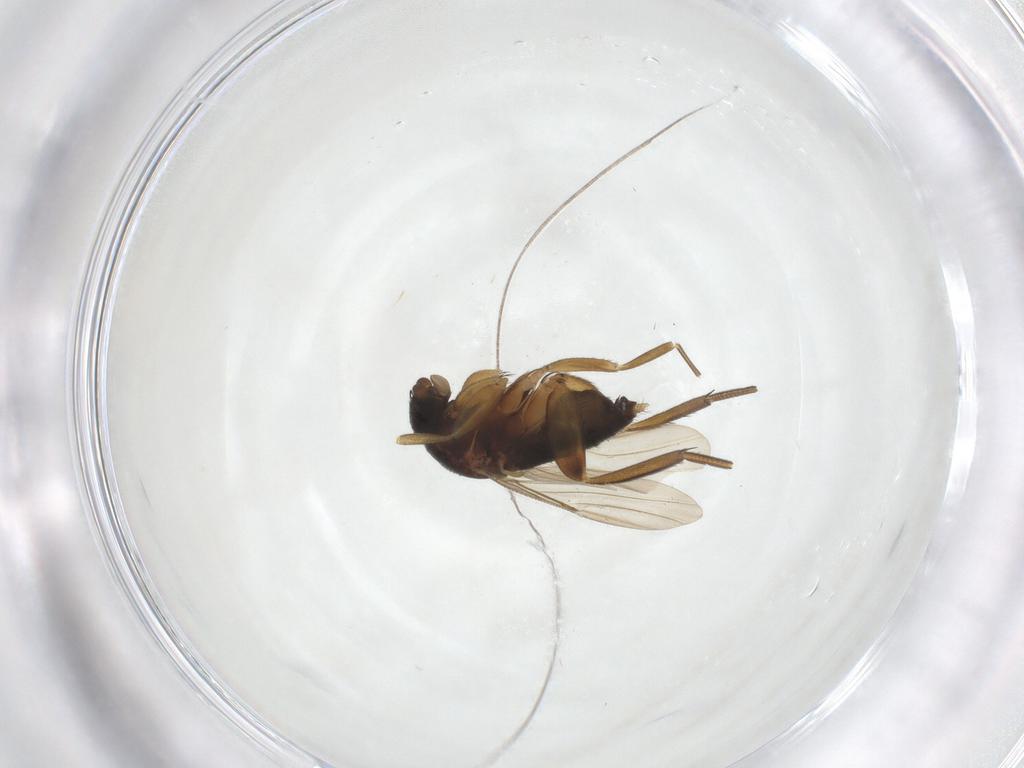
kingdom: Animalia
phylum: Arthropoda
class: Insecta
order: Diptera
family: Phoridae
